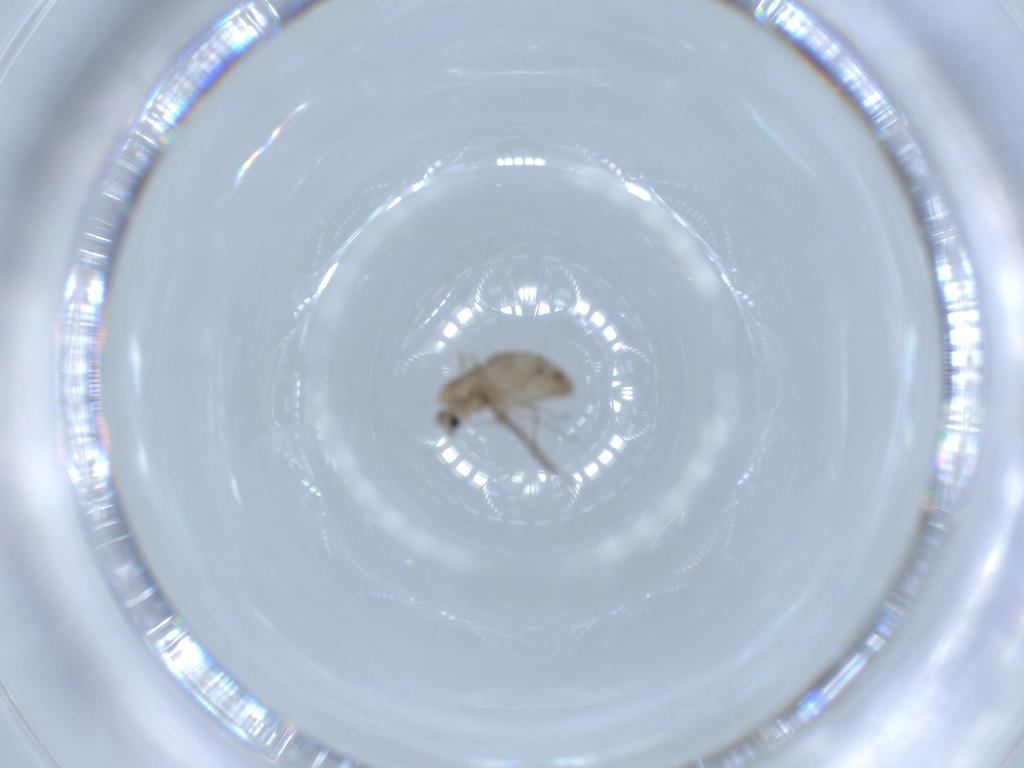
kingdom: Animalia
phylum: Arthropoda
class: Insecta
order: Diptera
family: Chironomidae
